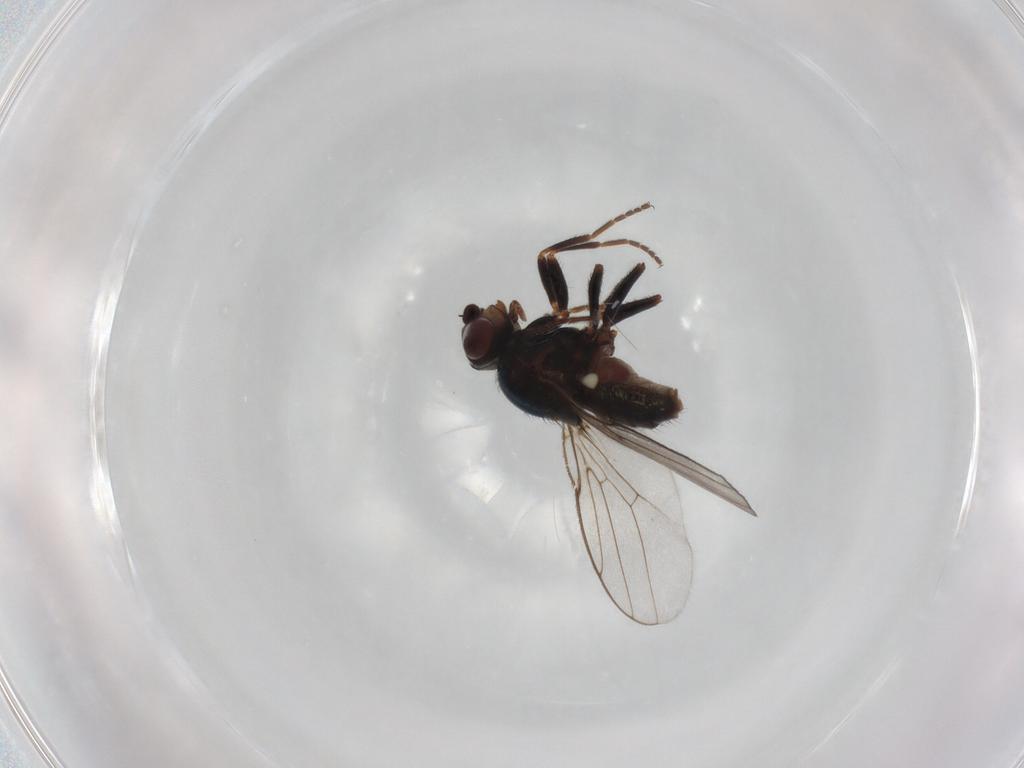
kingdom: Animalia
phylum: Arthropoda
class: Insecta
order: Diptera
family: Chloropidae
